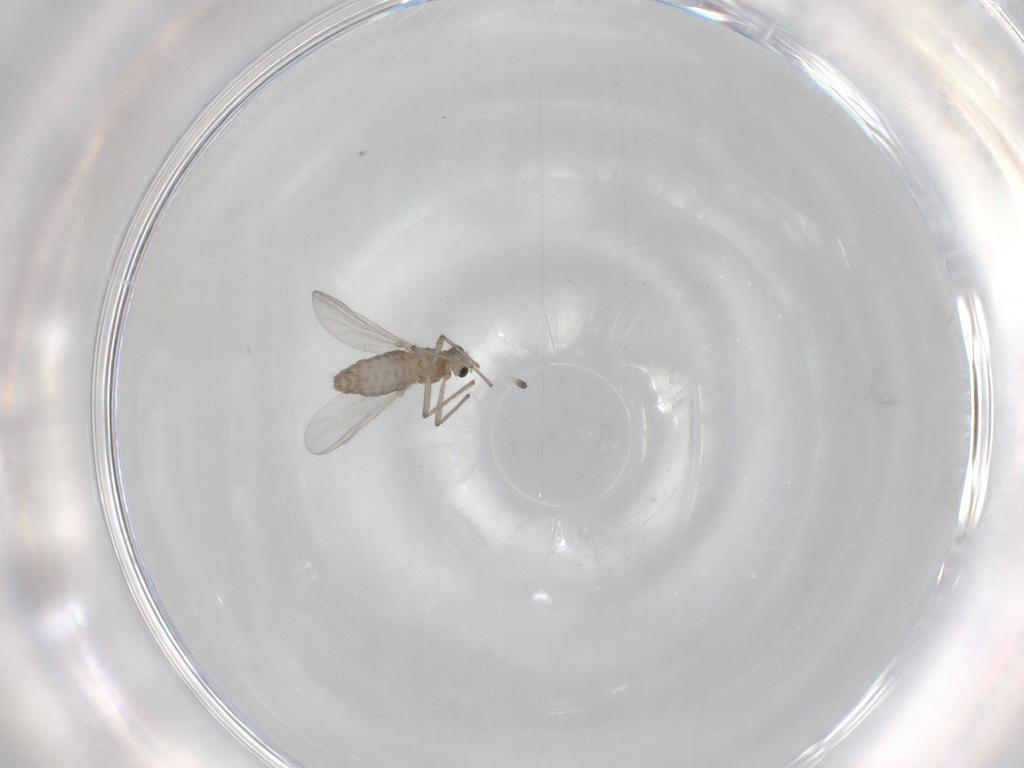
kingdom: Animalia
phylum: Arthropoda
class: Insecta
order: Diptera
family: Chironomidae
